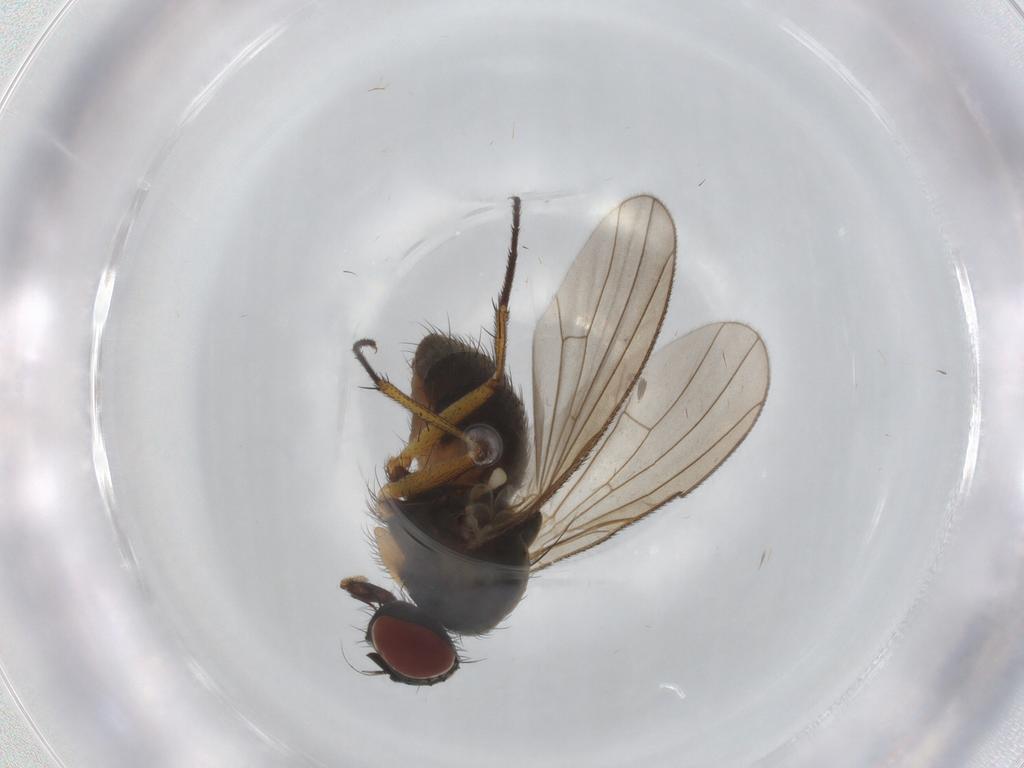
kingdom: Animalia
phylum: Arthropoda
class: Insecta
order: Diptera
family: Muscidae
